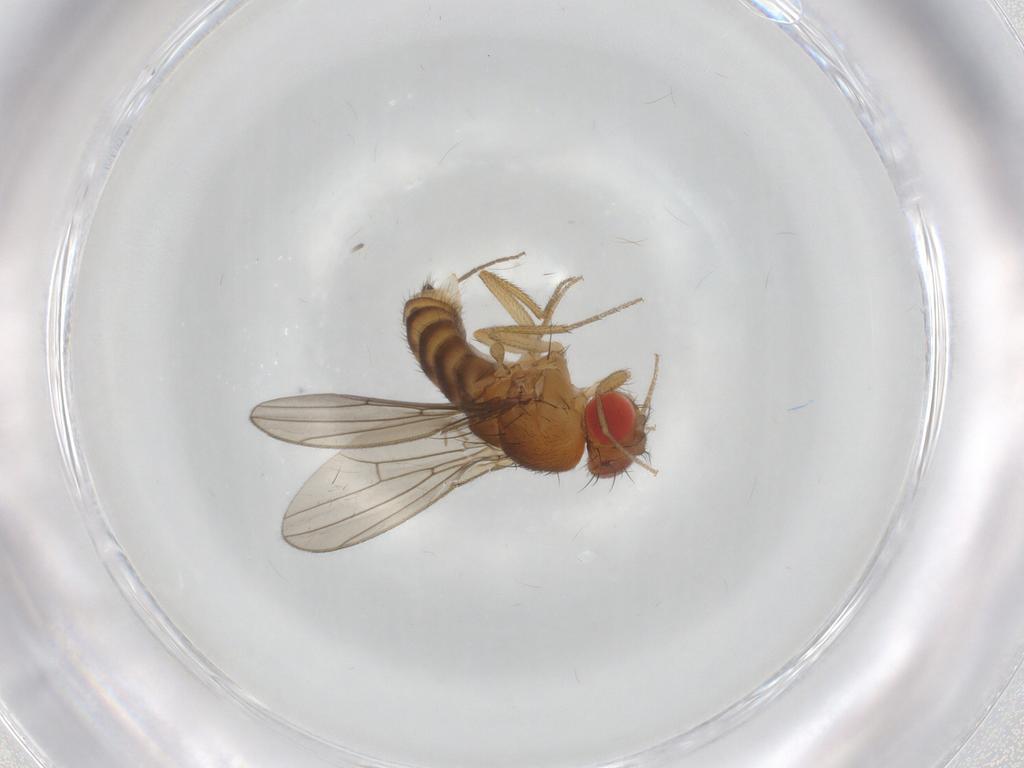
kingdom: Animalia
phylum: Arthropoda
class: Insecta
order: Diptera
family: Drosophilidae
